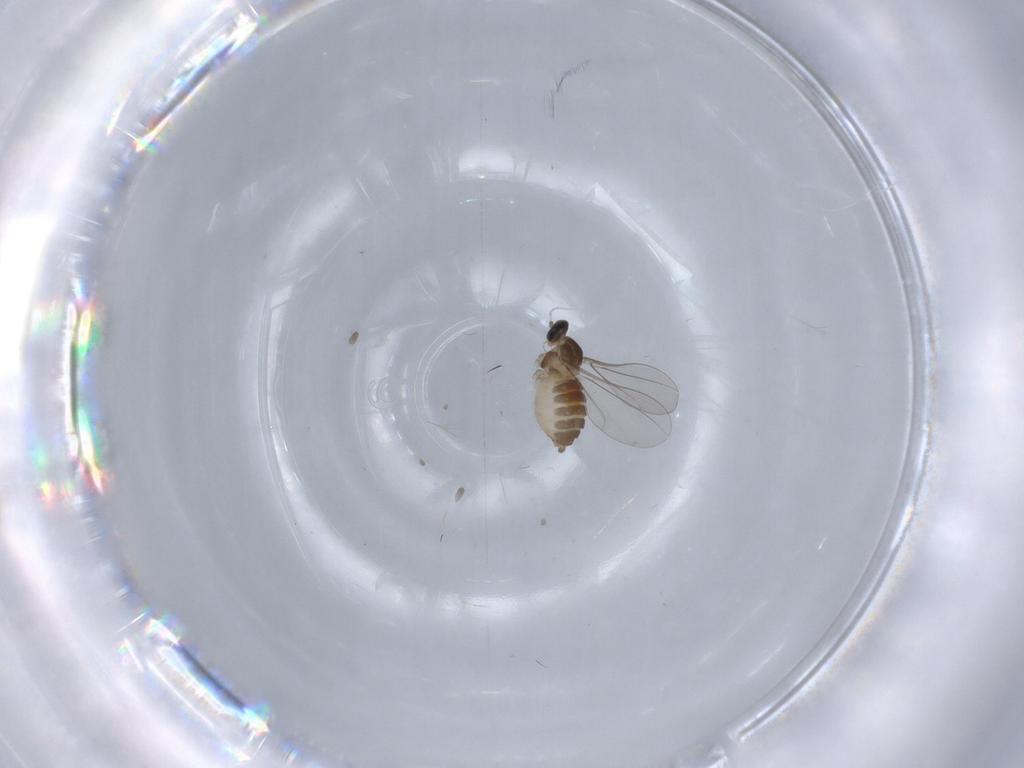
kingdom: Animalia
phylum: Arthropoda
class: Insecta
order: Diptera
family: Cecidomyiidae
